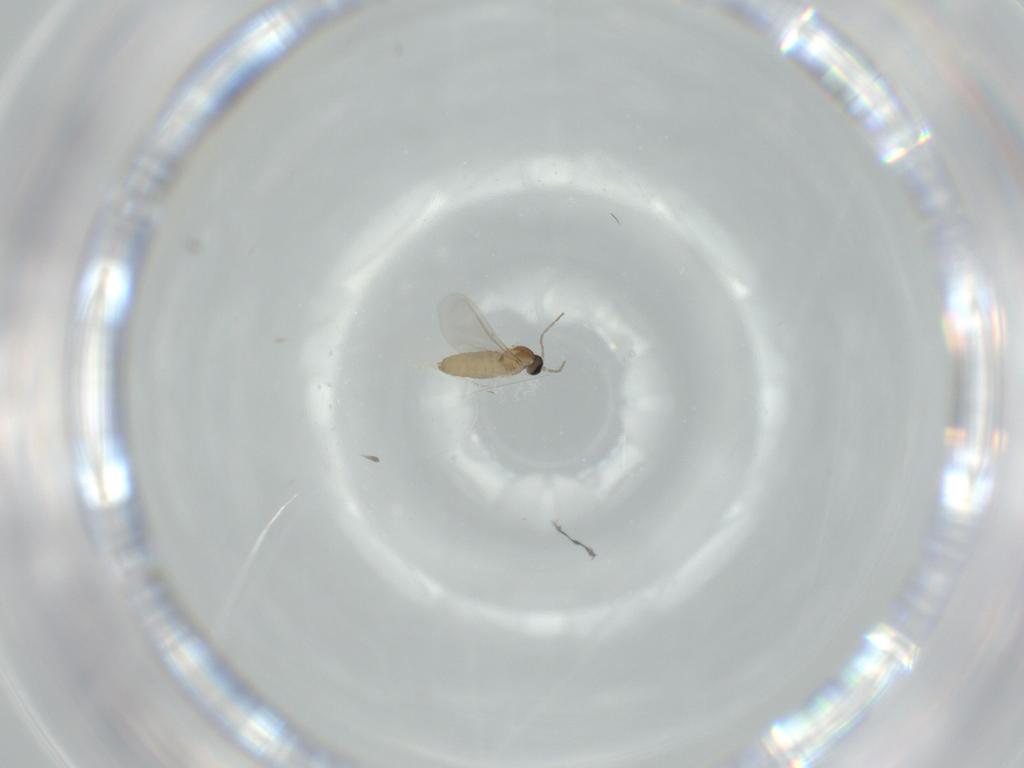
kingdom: Animalia
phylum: Arthropoda
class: Insecta
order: Diptera
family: Cecidomyiidae
